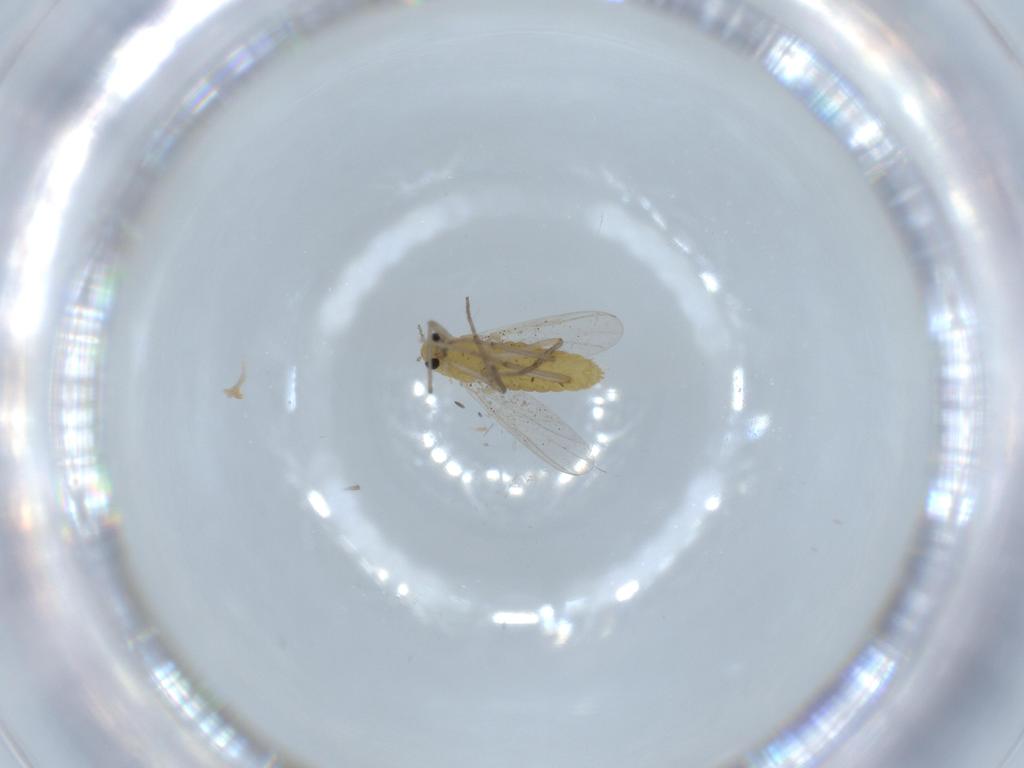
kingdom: Animalia
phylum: Arthropoda
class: Insecta
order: Diptera
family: Chironomidae
